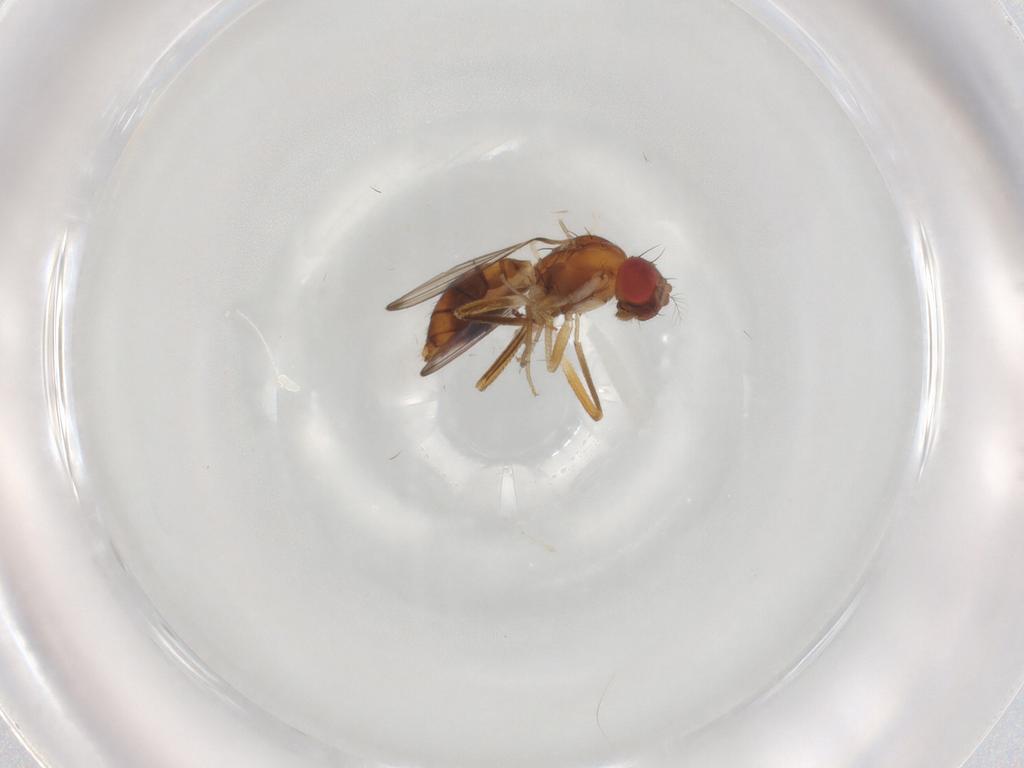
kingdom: Animalia
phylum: Arthropoda
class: Insecta
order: Diptera
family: Drosophilidae
